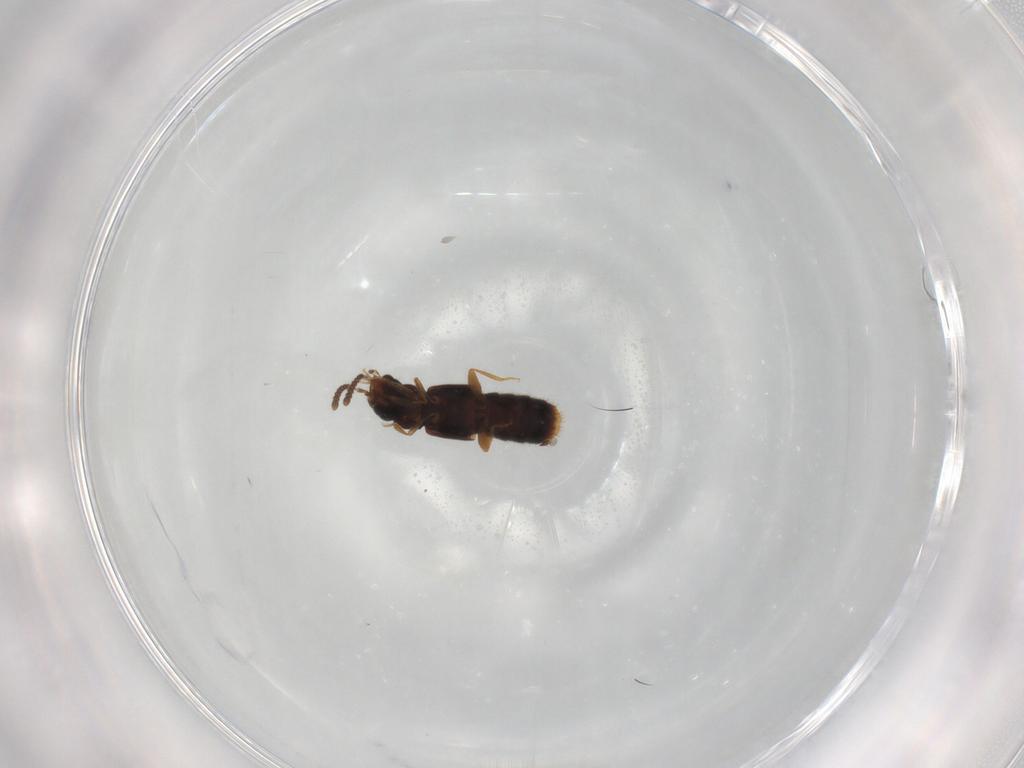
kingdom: Animalia
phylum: Arthropoda
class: Insecta
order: Coleoptera
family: Staphylinidae
